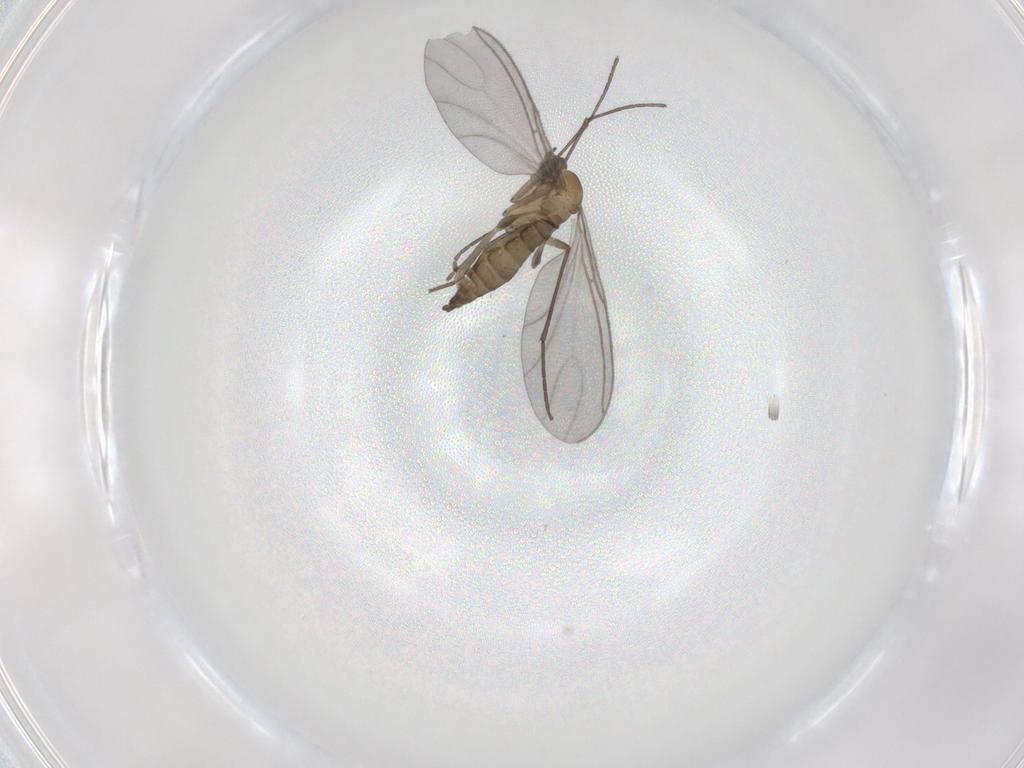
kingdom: Animalia
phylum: Arthropoda
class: Insecta
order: Diptera
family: Sciaridae
